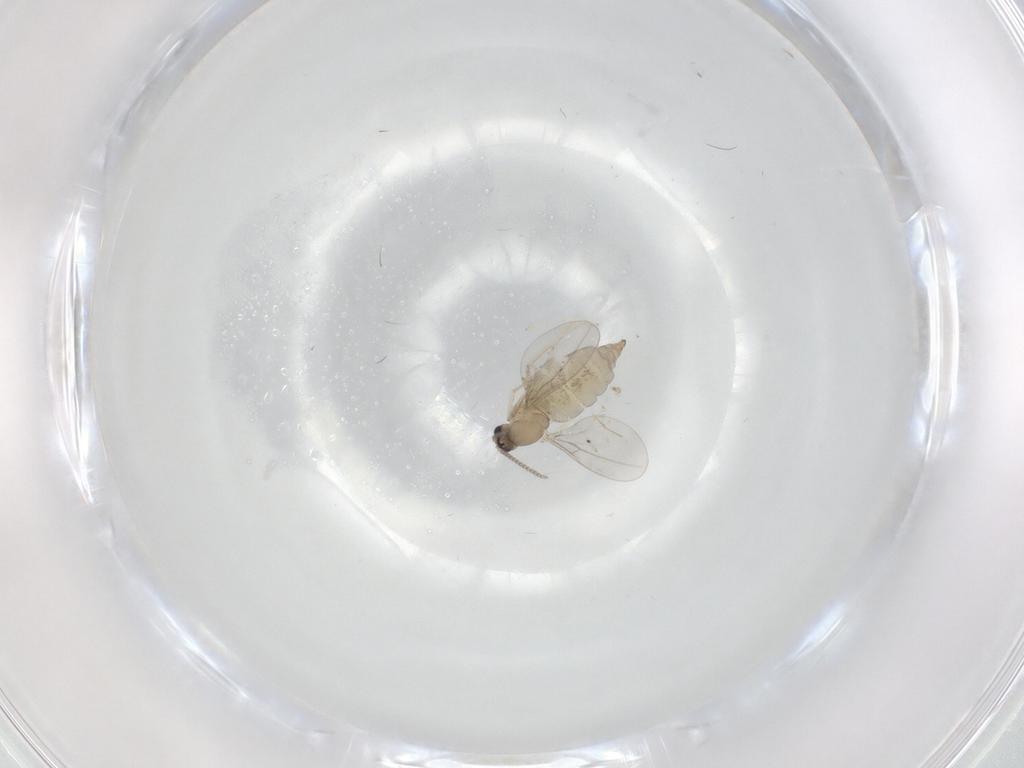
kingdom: Animalia
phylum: Arthropoda
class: Insecta
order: Diptera
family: Cecidomyiidae
